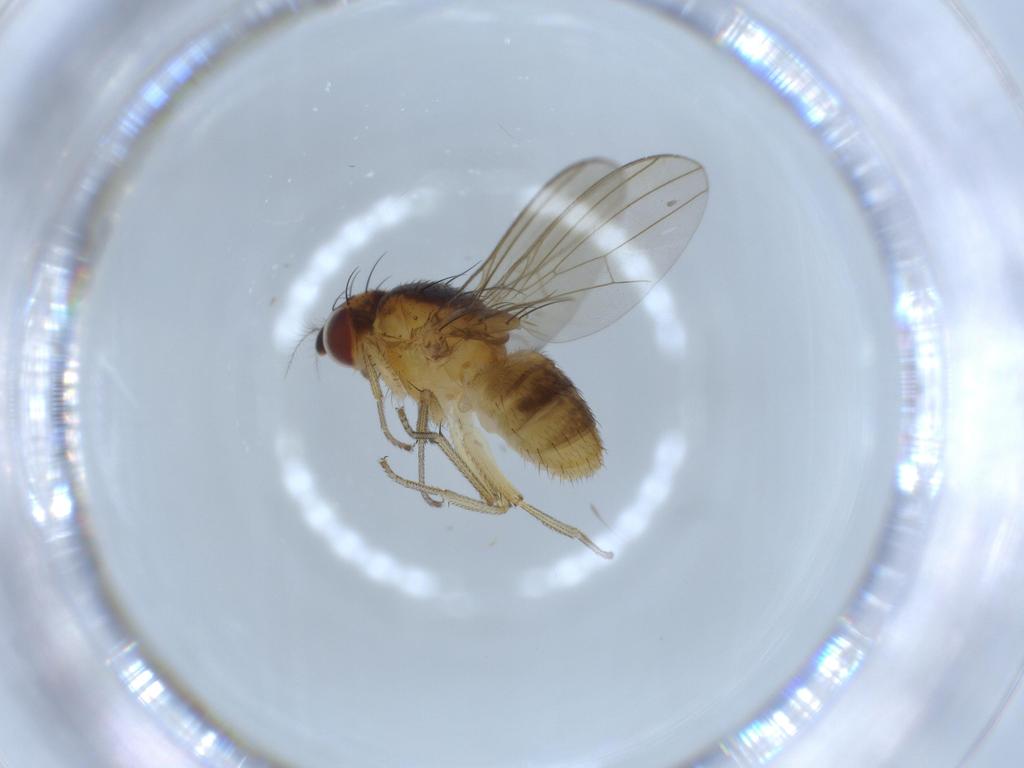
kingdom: Animalia
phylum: Arthropoda
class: Insecta
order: Diptera
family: Lauxaniidae
